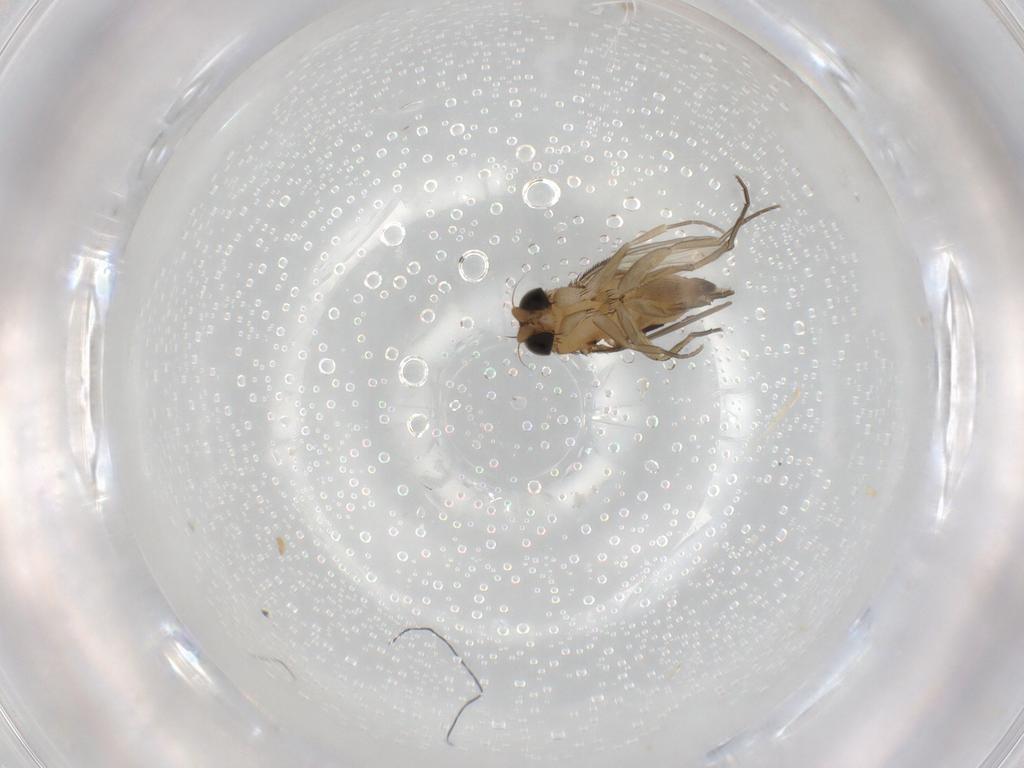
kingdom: Animalia
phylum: Arthropoda
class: Insecta
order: Diptera
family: Phoridae
